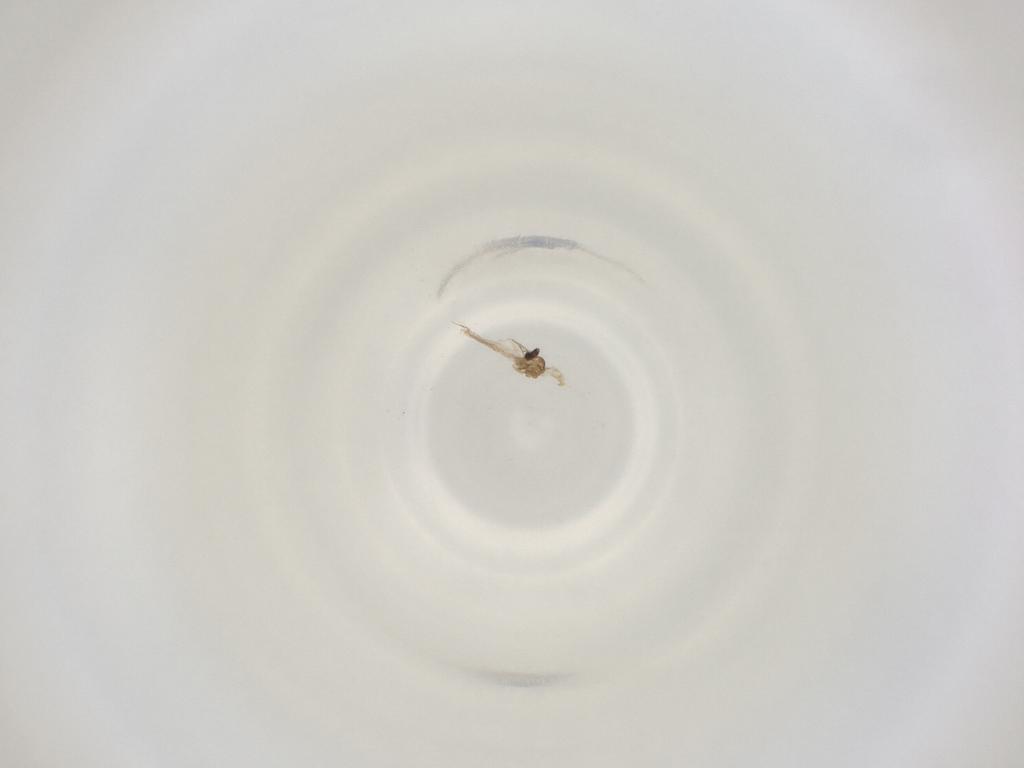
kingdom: Animalia
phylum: Arthropoda
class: Insecta
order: Diptera
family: Cecidomyiidae
